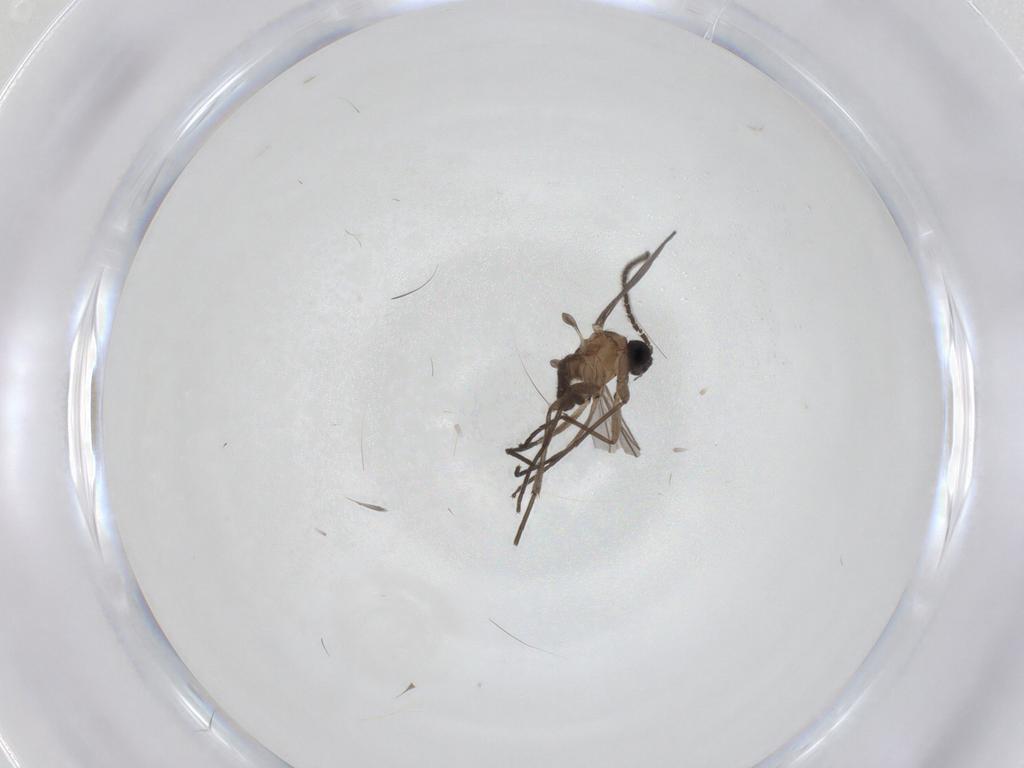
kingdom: Animalia
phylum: Arthropoda
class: Insecta
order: Diptera
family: Sciaridae
